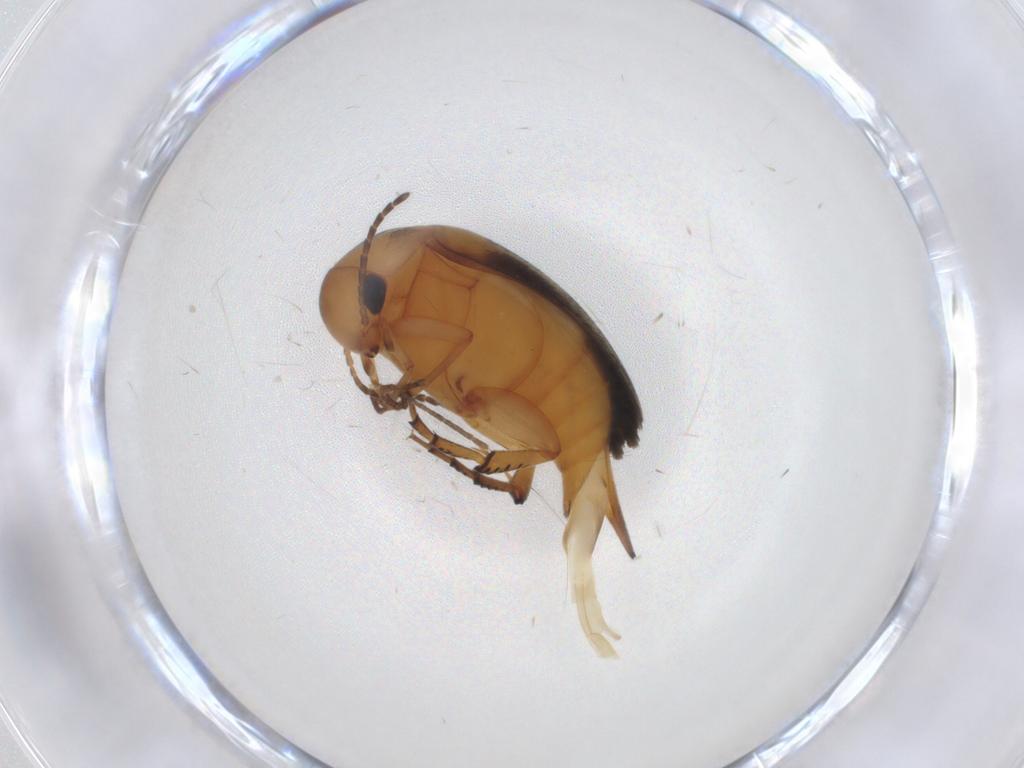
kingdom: Animalia
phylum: Arthropoda
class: Insecta
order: Coleoptera
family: Mordellidae
